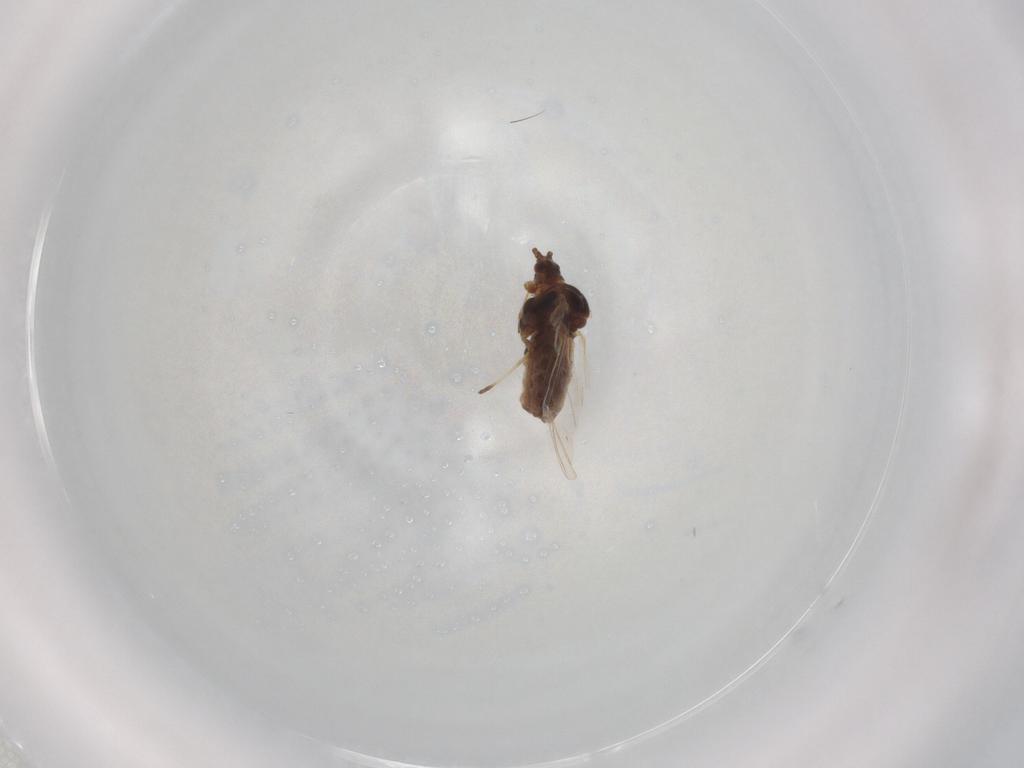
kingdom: Animalia
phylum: Arthropoda
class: Insecta
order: Hemiptera
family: Aphididae
